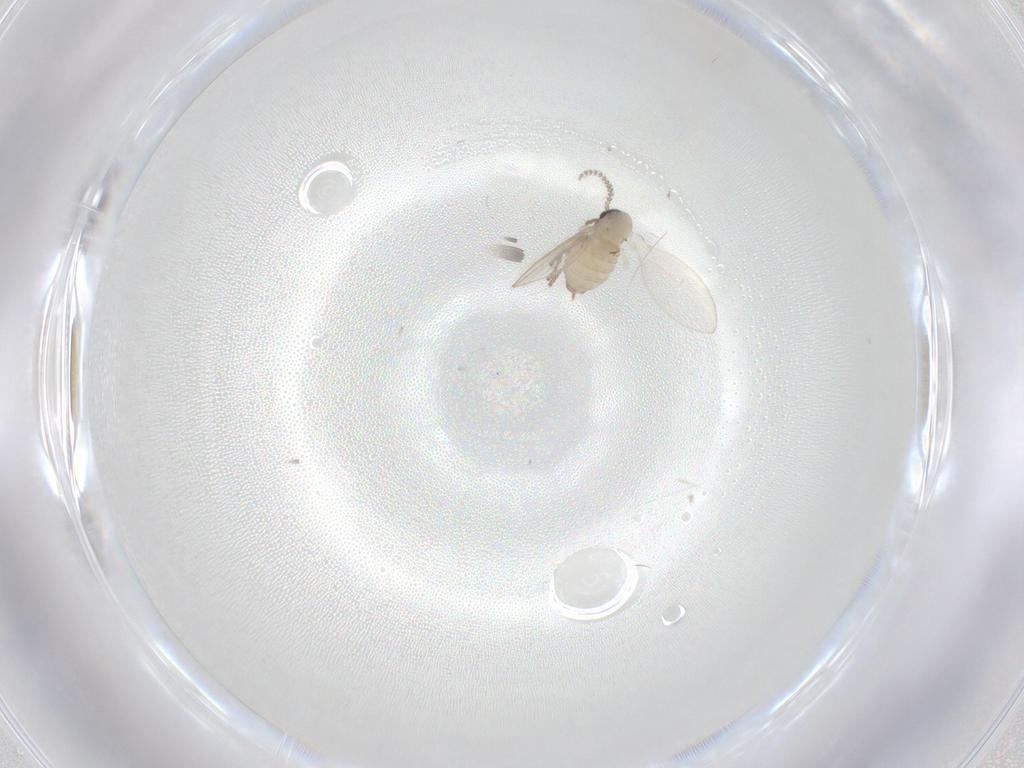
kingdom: Animalia
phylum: Arthropoda
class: Insecta
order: Diptera
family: Psychodidae
